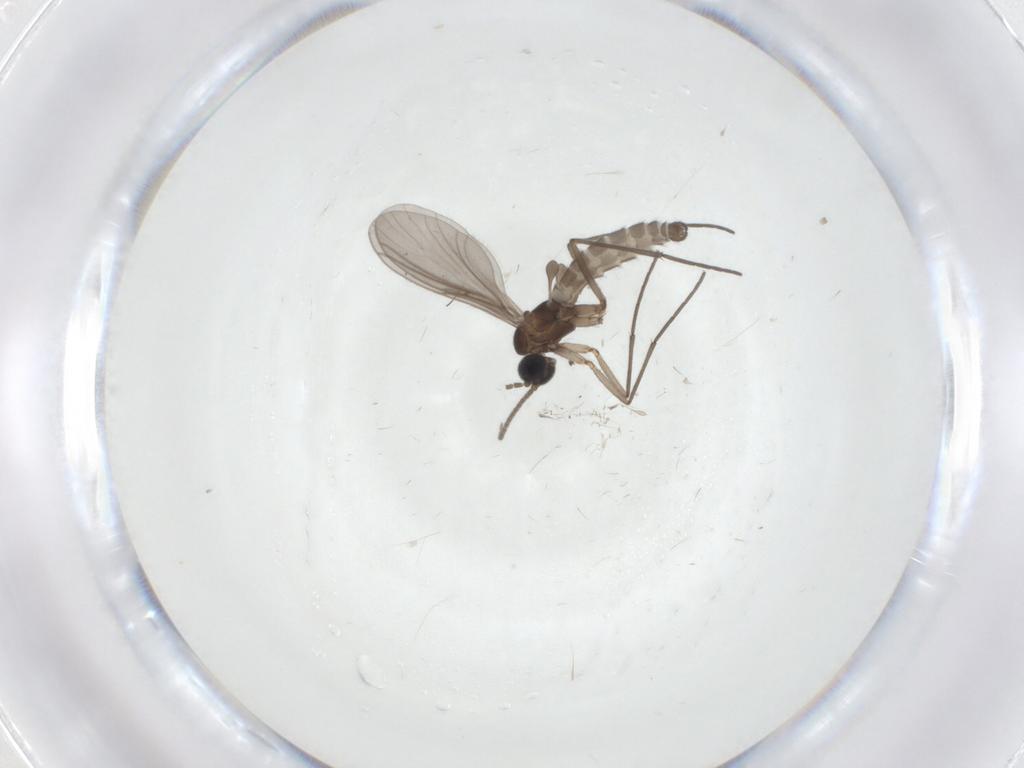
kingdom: Animalia
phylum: Arthropoda
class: Insecta
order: Diptera
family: Sciaridae
